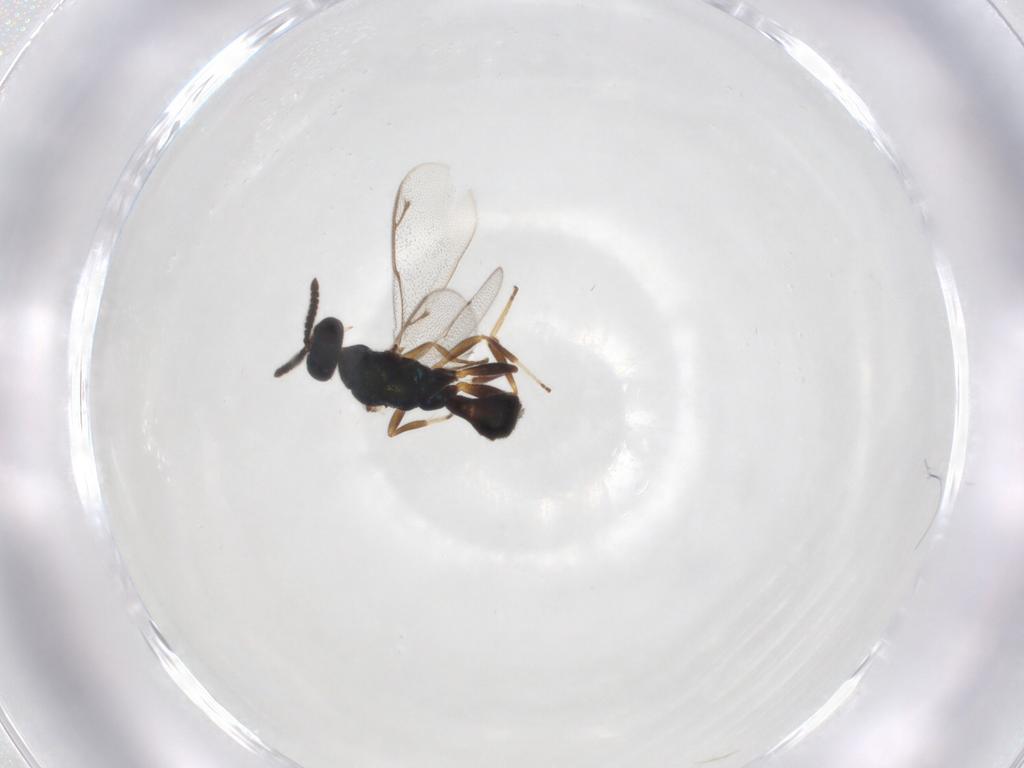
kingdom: Animalia
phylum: Arthropoda
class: Insecta
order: Hymenoptera
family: Cleonyminae
